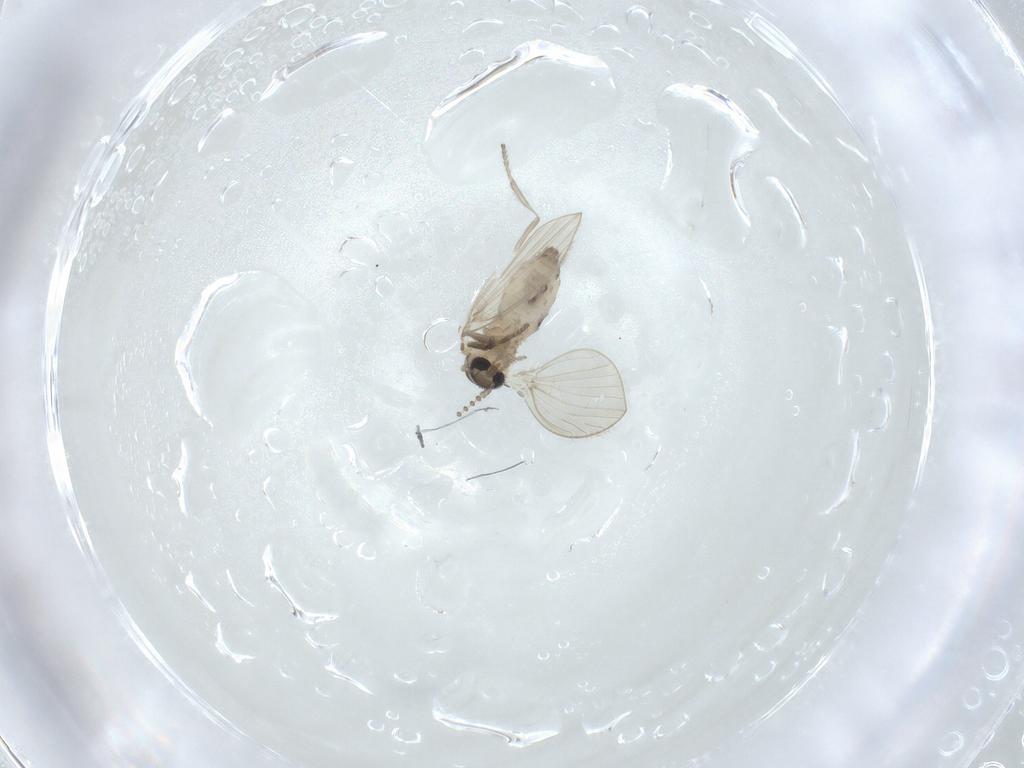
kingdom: Animalia
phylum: Arthropoda
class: Insecta
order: Diptera
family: Psychodidae
